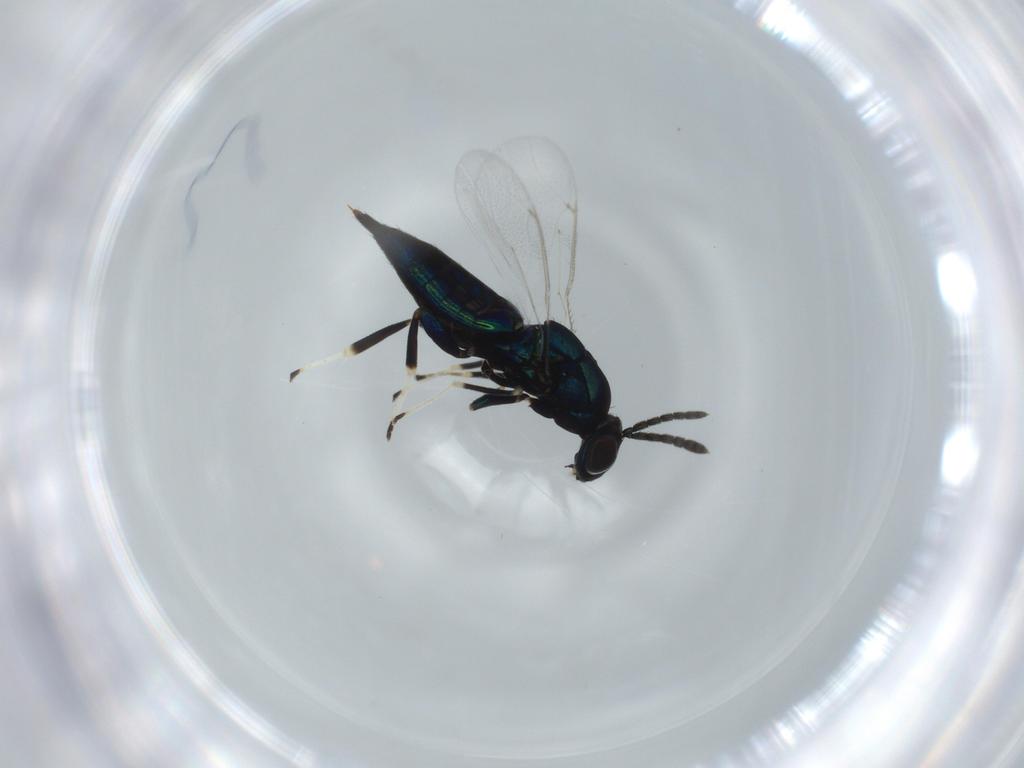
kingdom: Animalia
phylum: Arthropoda
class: Insecta
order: Hymenoptera
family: Eulophidae
